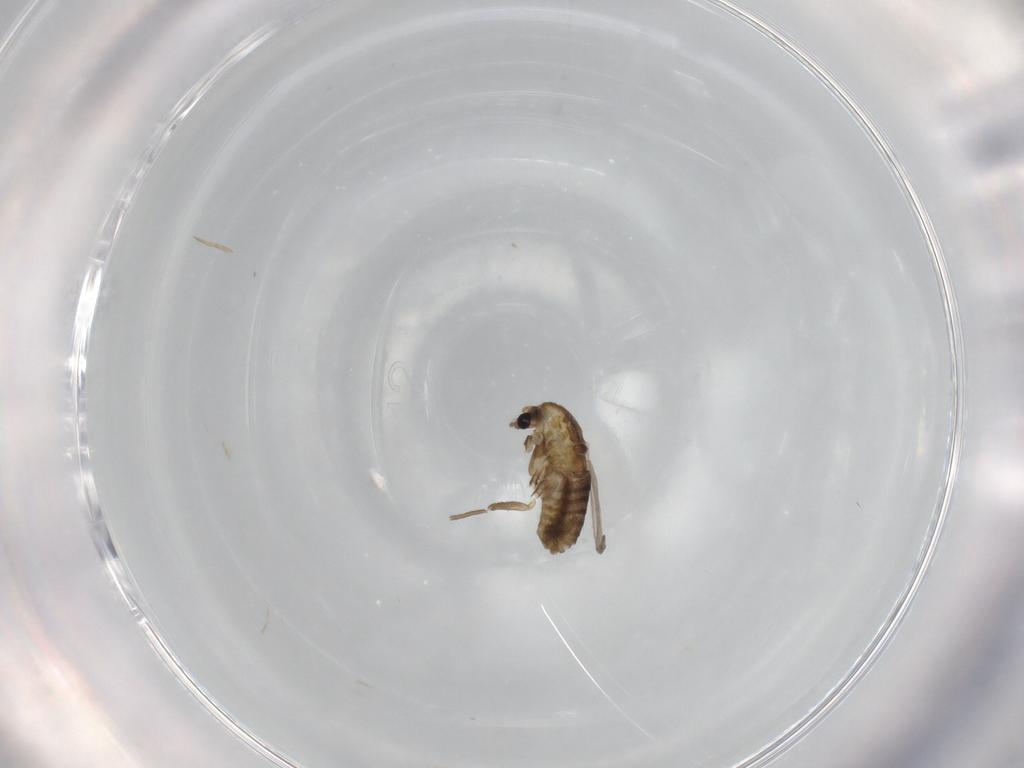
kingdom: Animalia
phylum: Arthropoda
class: Insecta
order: Diptera
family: Chironomidae
